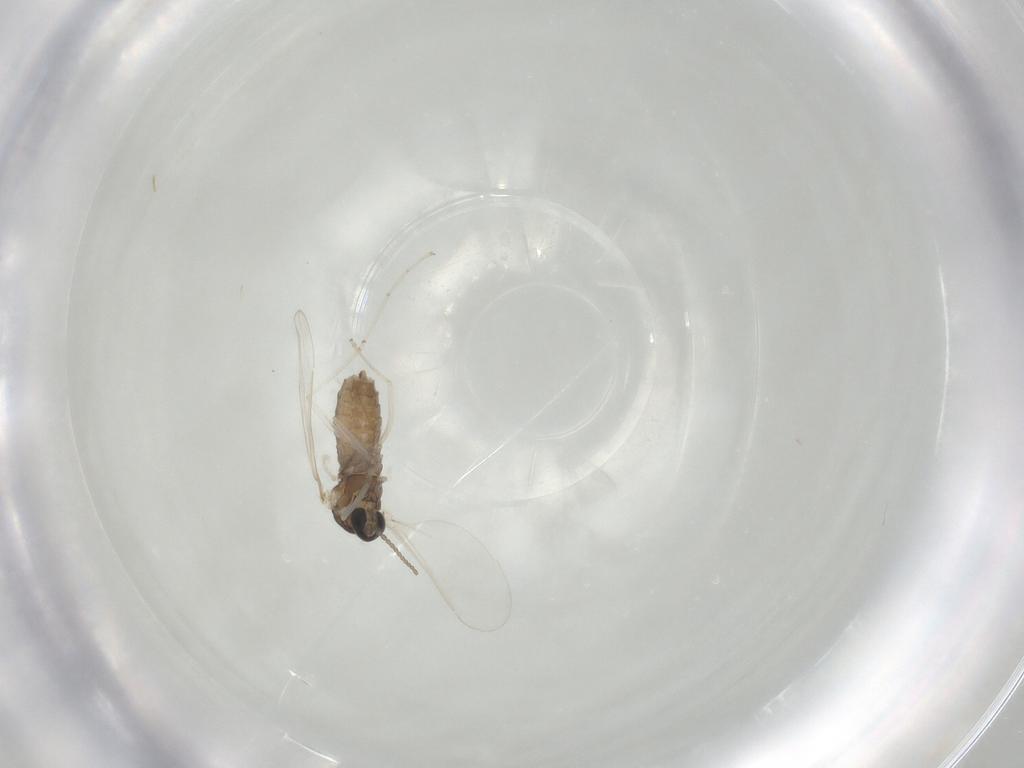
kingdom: Animalia
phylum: Arthropoda
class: Insecta
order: Diptera
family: Cecidomyiidae
